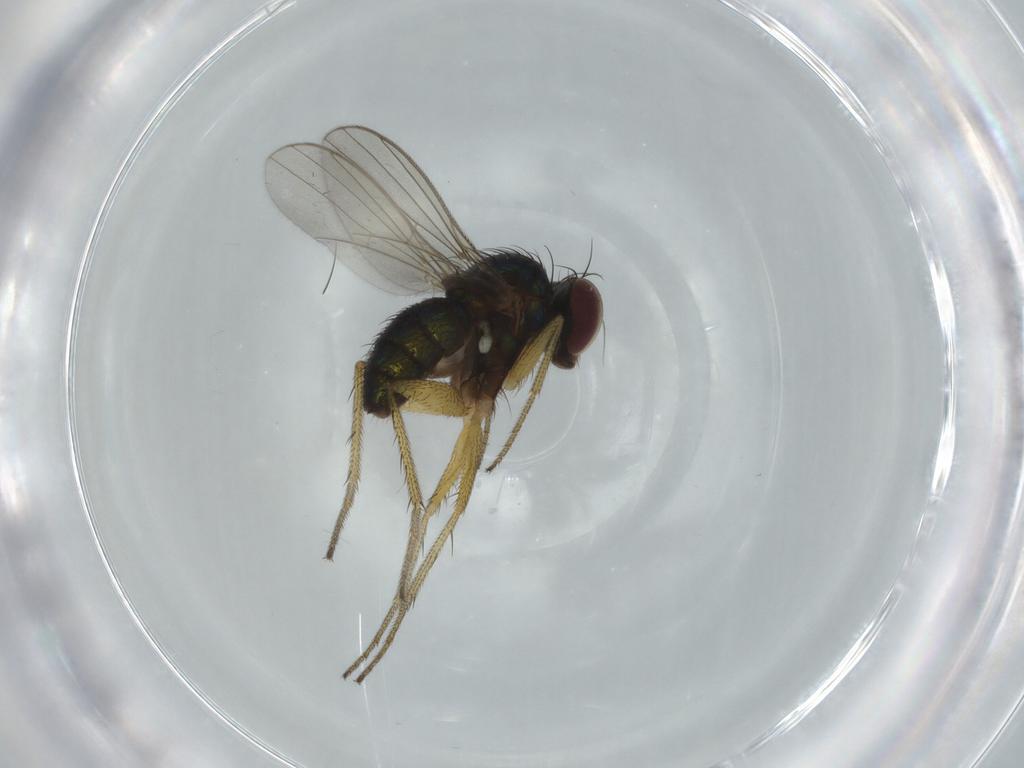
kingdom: Animalia
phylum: Arthropoda
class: Insecta
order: Diptera
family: Dolichopodidae
